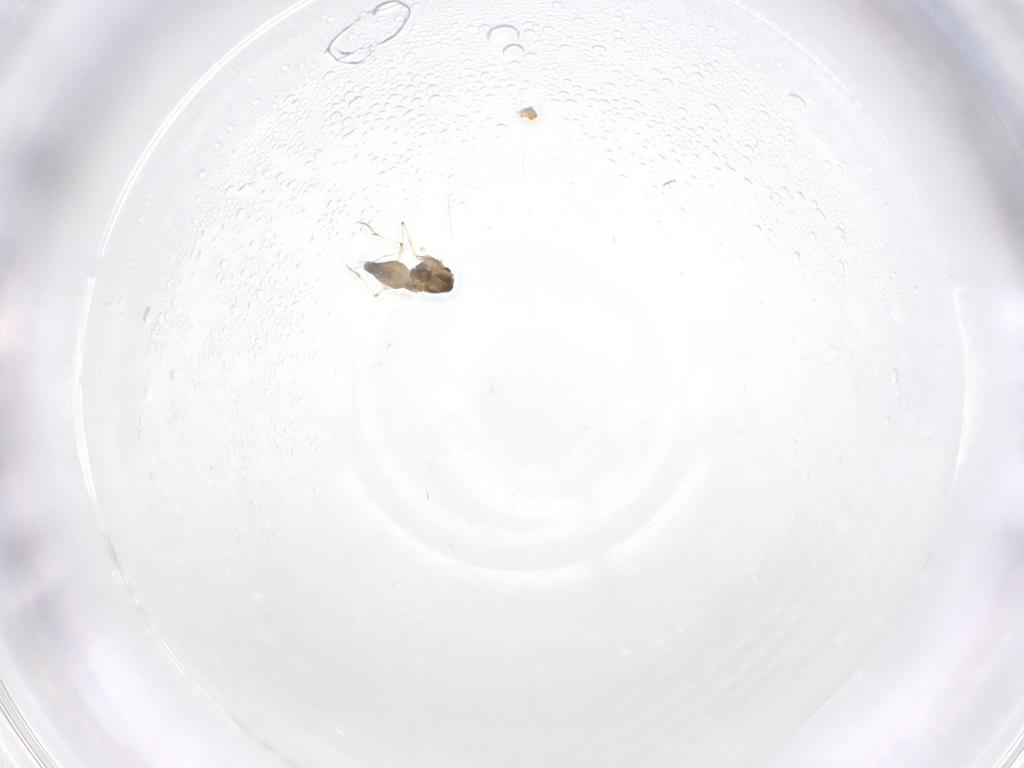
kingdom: Animalia
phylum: Arthropoda
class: Insecta
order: Diptera
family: Chironomidae
